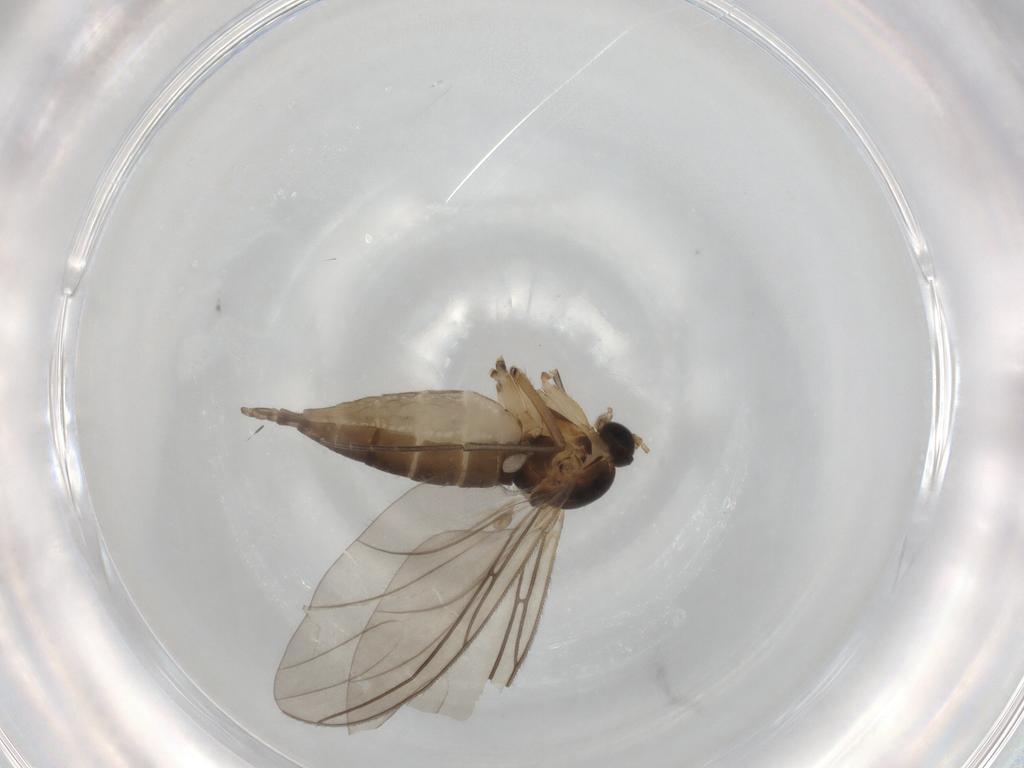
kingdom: Animalia
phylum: Arthropoda
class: Insecta
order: Diptera
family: Sciaridae
